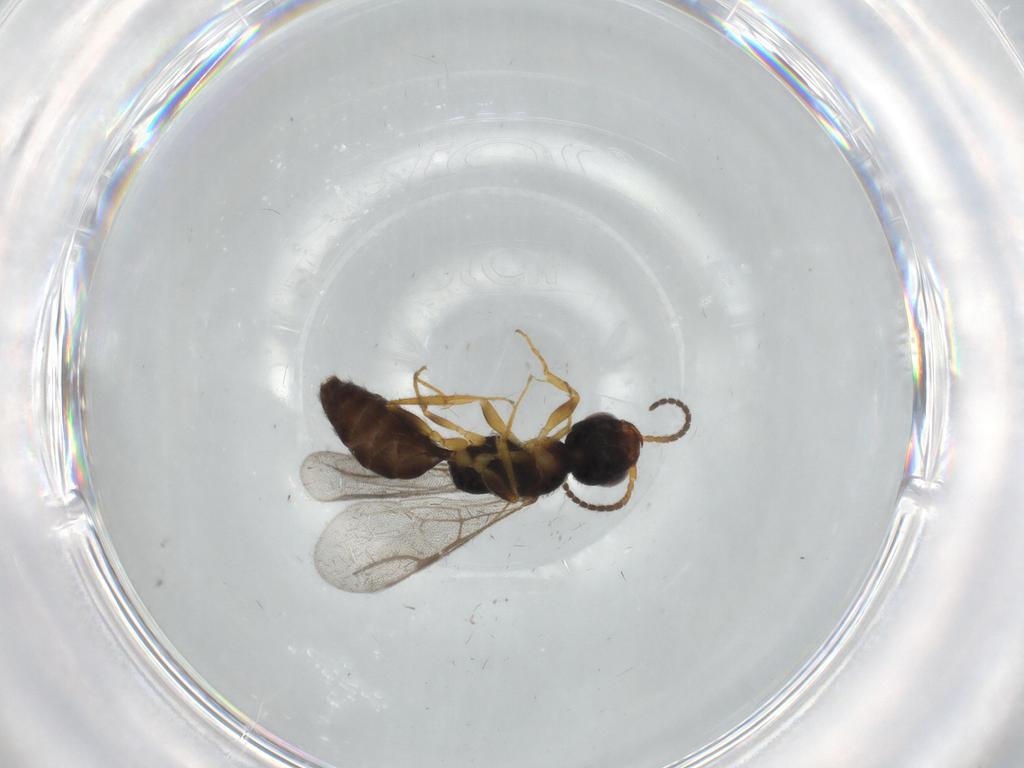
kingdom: Animalia
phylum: Arthropoda
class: Insecta
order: Hymenoptera
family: Bethylidae
